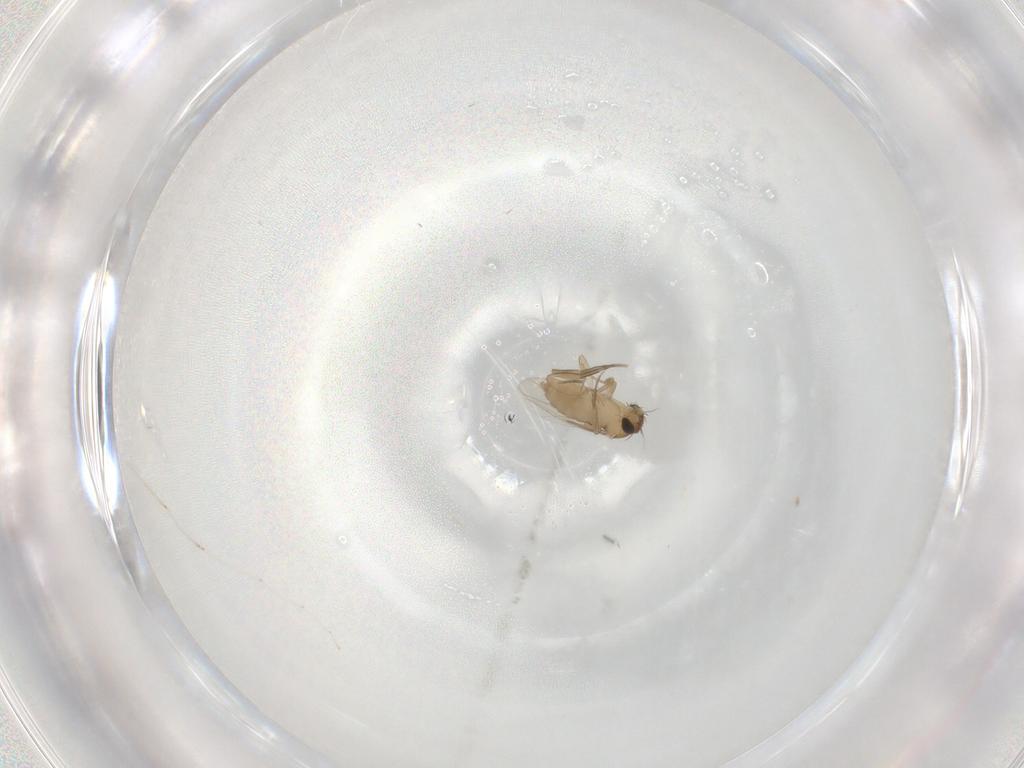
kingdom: Animalia
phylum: Arthropoda
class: Insecta
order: Diptera
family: Cecidomyiidae
